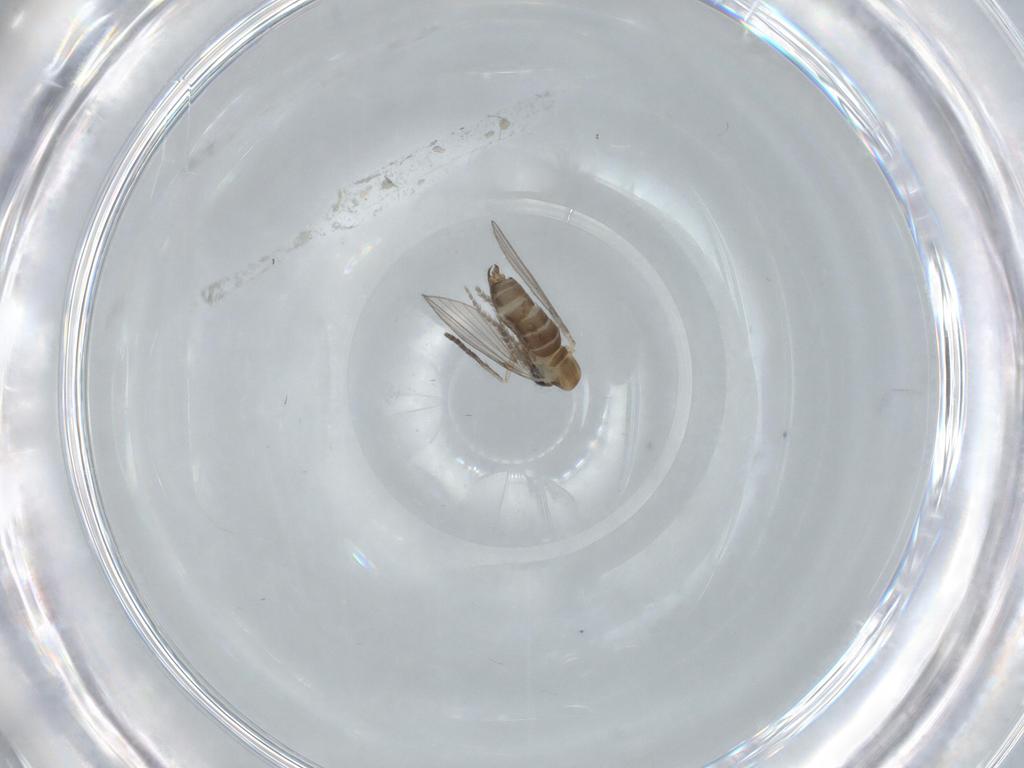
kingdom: Animalia
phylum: Arthropoda
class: Insecta
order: Diptera
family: Psychodidae
